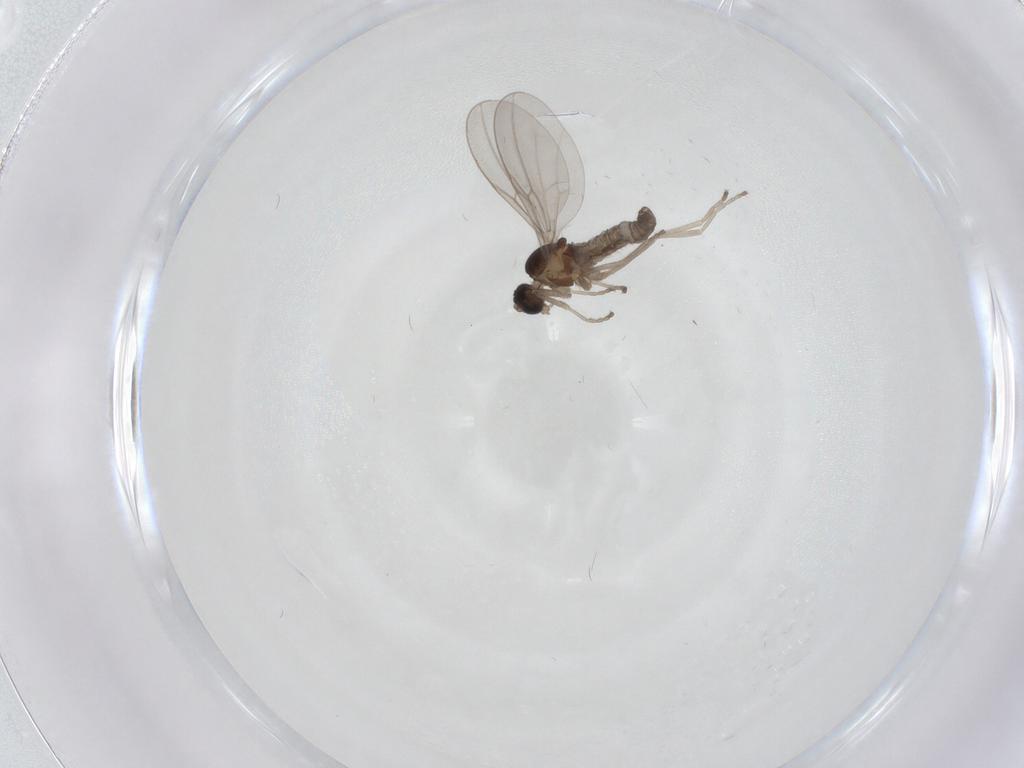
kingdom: Animalia
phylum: Arthropoda
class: Insecta
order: Diptera
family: Cecidomyiidae
